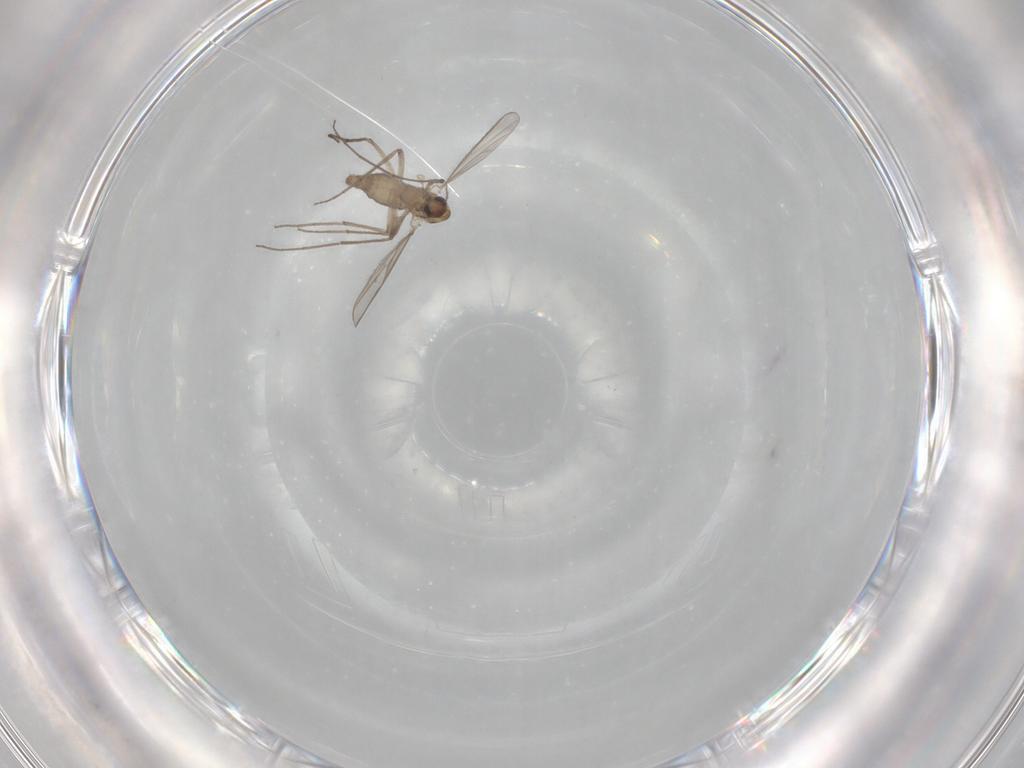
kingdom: Animalia
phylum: Arthropoda
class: Insecta
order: Diptera
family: Chironomidae
